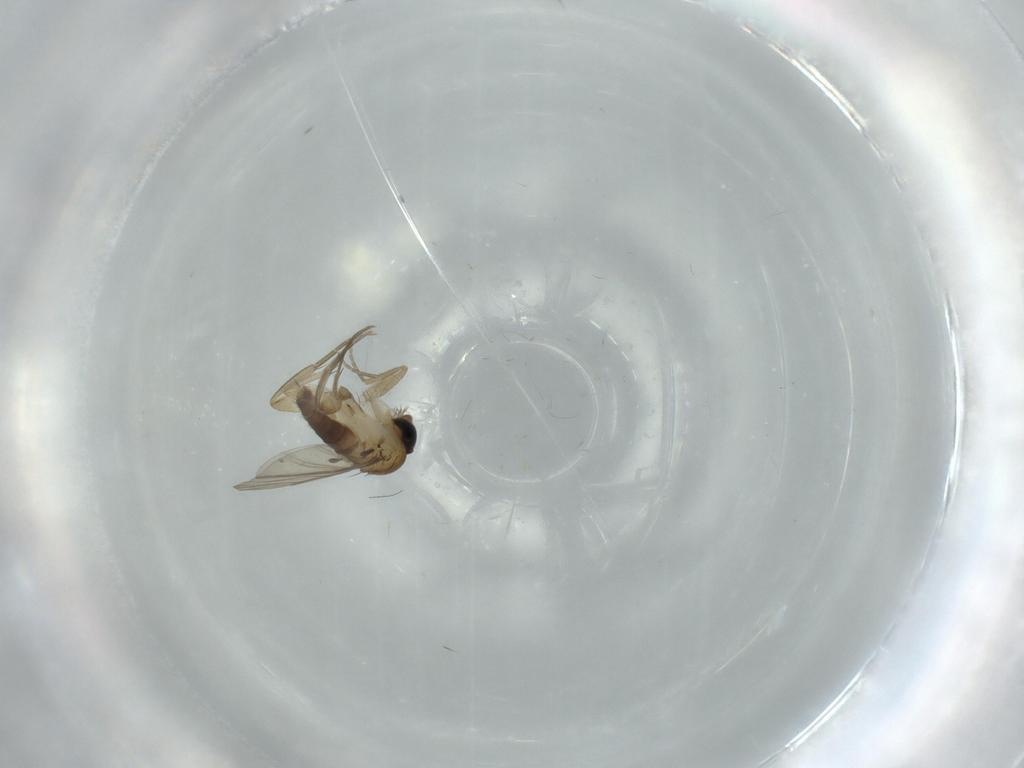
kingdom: Animalia
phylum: Arthropoda
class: Insecta
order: Diptera
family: Phoridae
